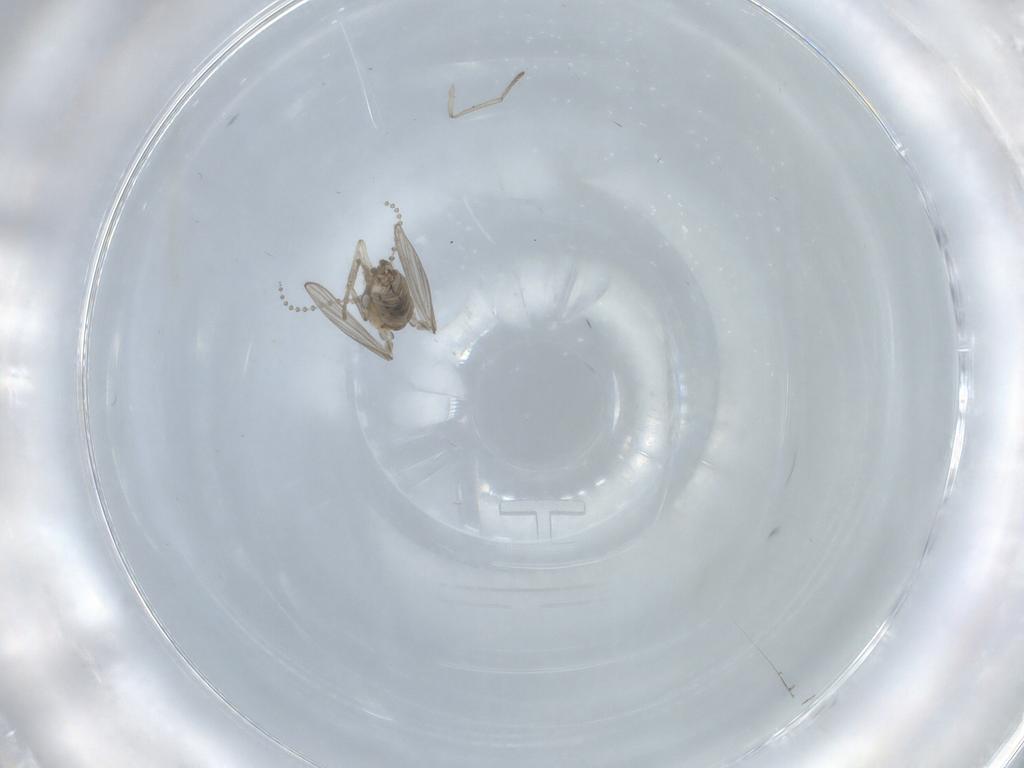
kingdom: Animalia
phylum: Arthropoda
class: Insecta
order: Diptera
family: Psychodidae
